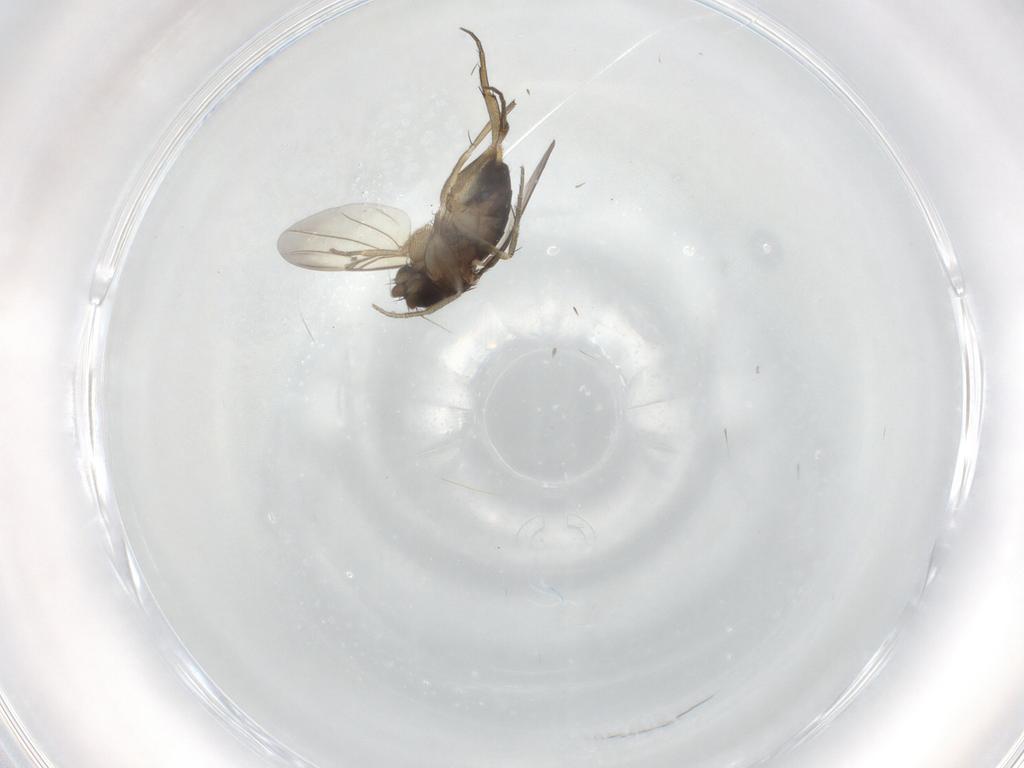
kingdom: Animalia
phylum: Arthropoda
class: Insecta
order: Diptera
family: Phoridae
